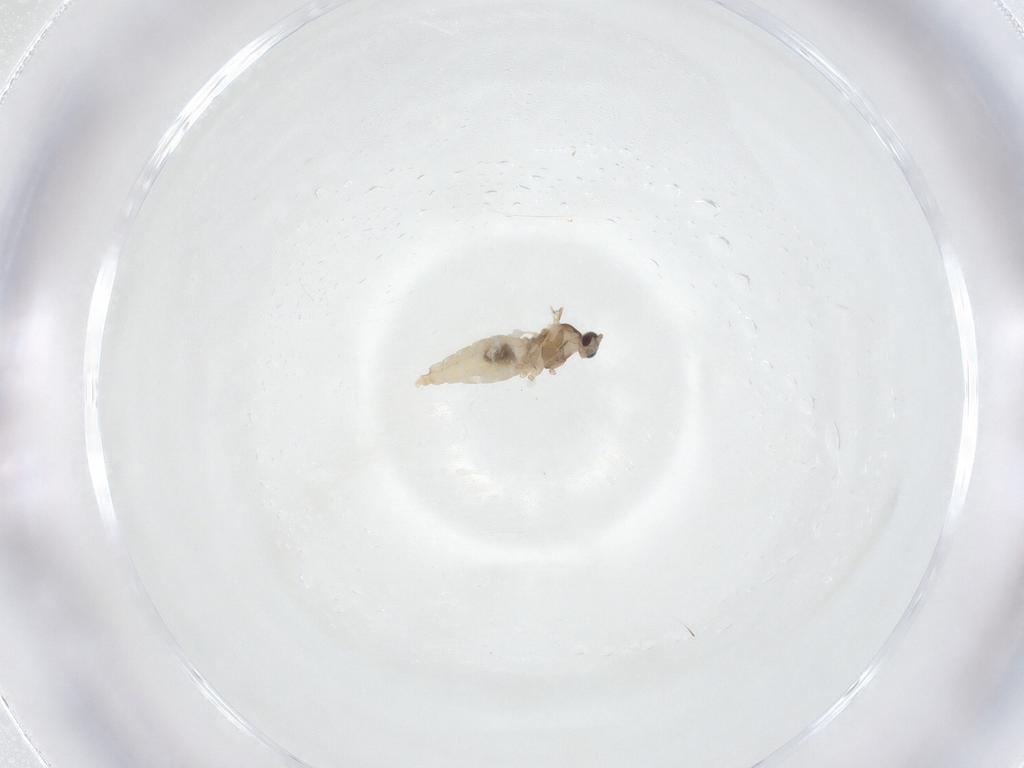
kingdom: Animalia
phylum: Arthropoda
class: Insecta
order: Diptera
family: Cecidomyiidae
